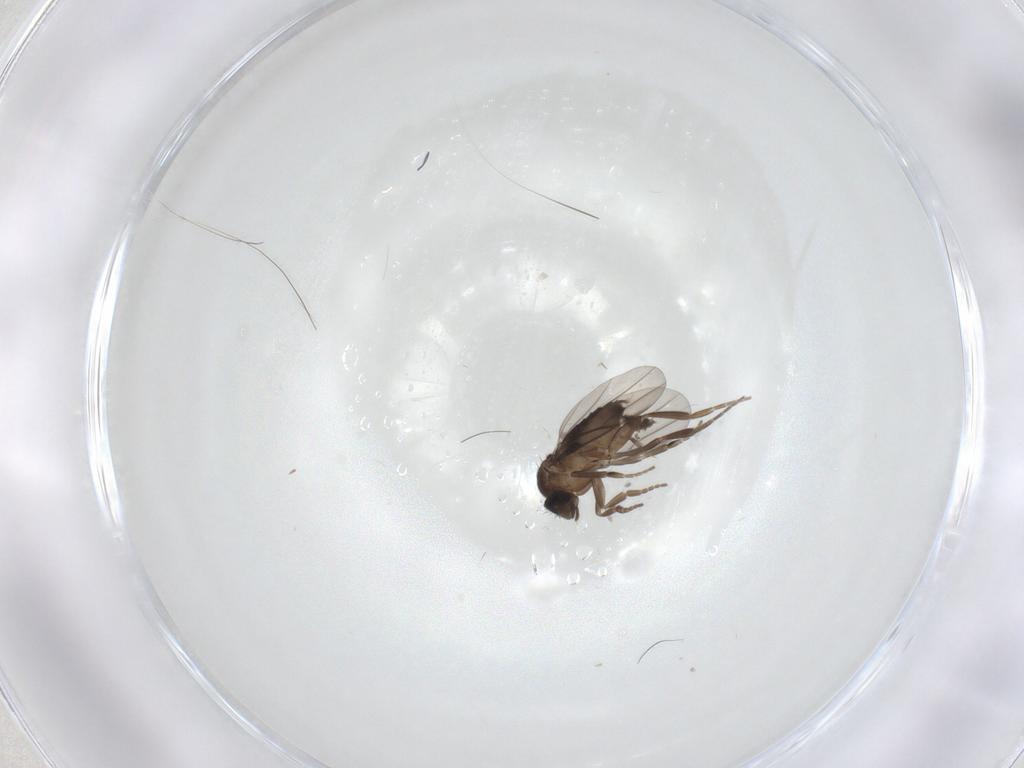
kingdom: Animalia
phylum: Arthropoda
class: Insecta
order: Diptera
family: Phoridae
